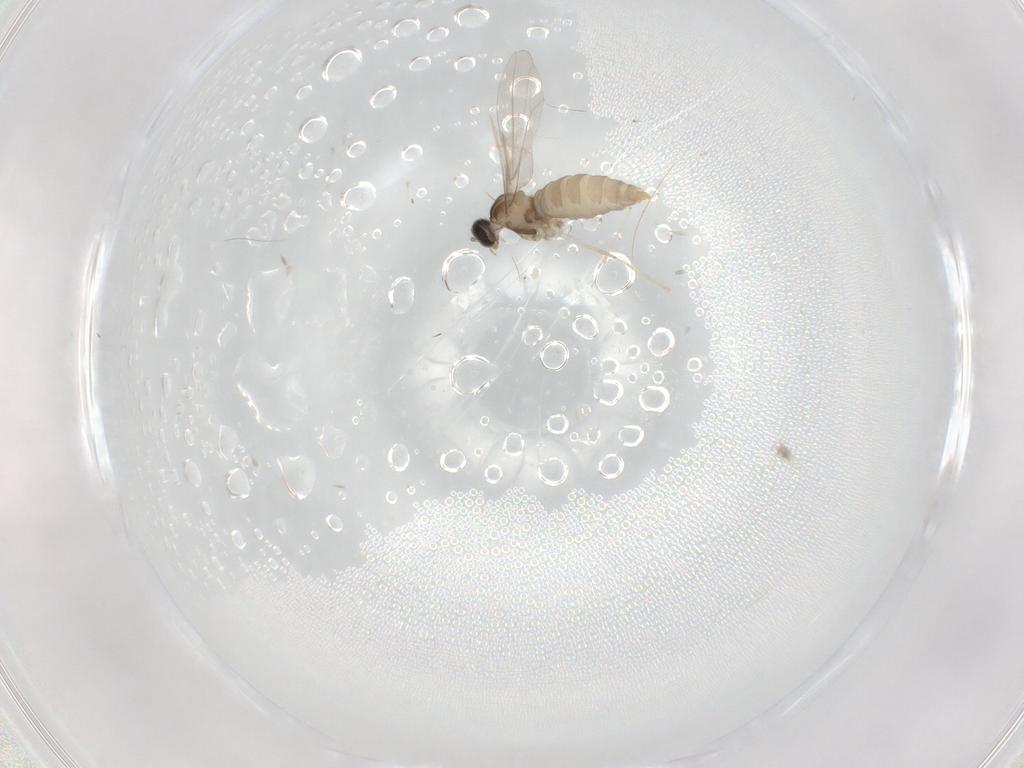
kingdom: Animalia
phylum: Arthropoda
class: Insecta
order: Diptera
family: Cecidomyiidae
